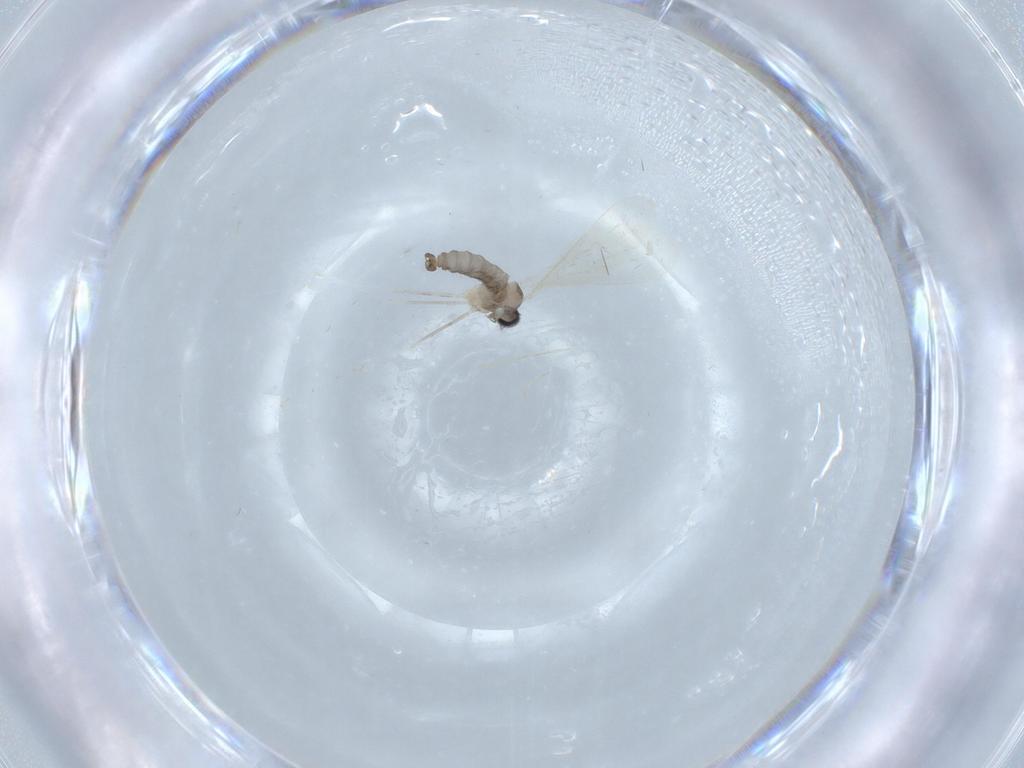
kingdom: Animalia
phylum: Arthropoda
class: Insecta
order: Diptera
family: Cecidomyiidae
